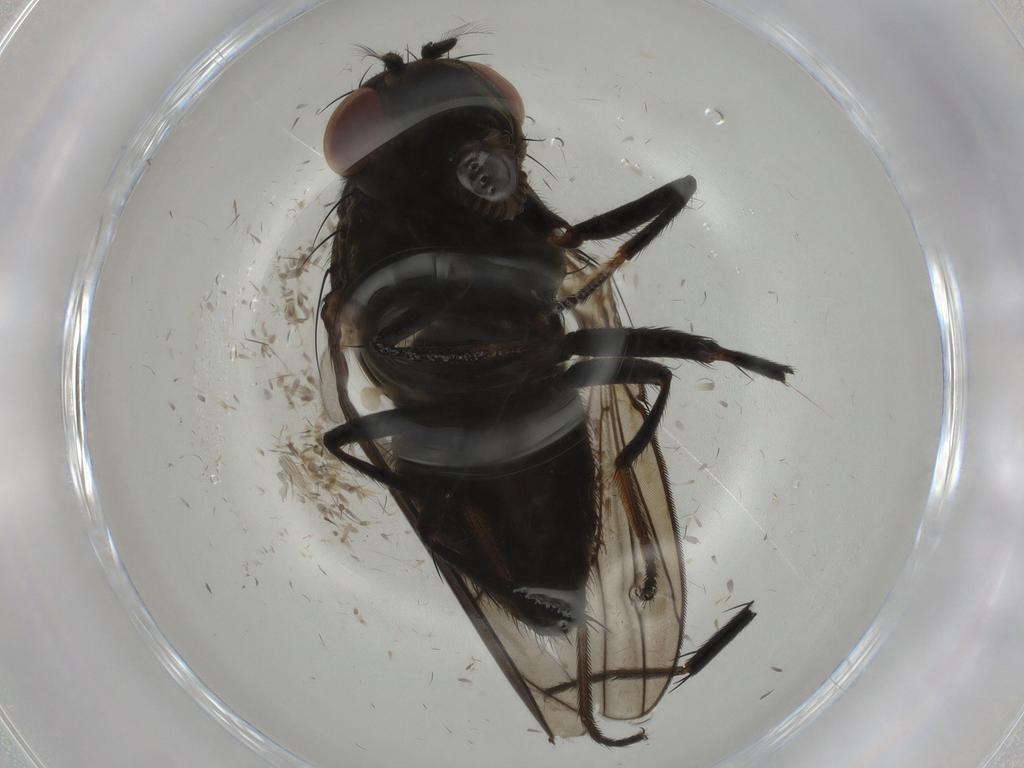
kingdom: Animalia
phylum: Arthropoda
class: Insecta
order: Diptera
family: Ephydridae
